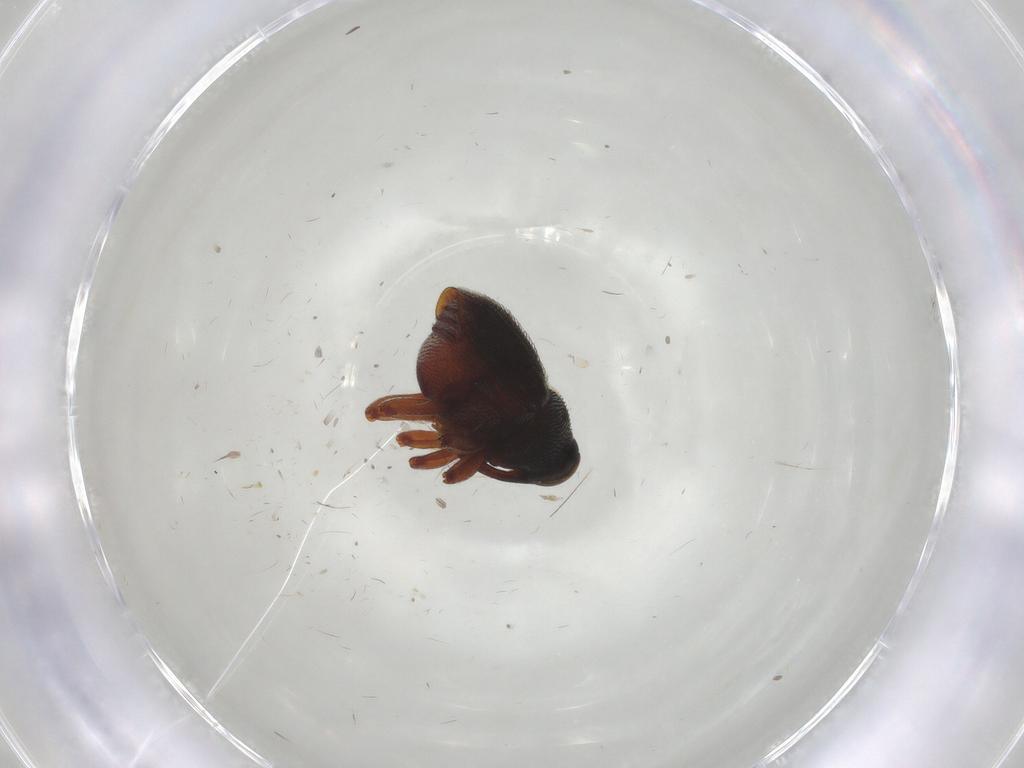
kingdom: Animalia
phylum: Arthropoda
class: Insecta
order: Coleoptera
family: Curculionidae
